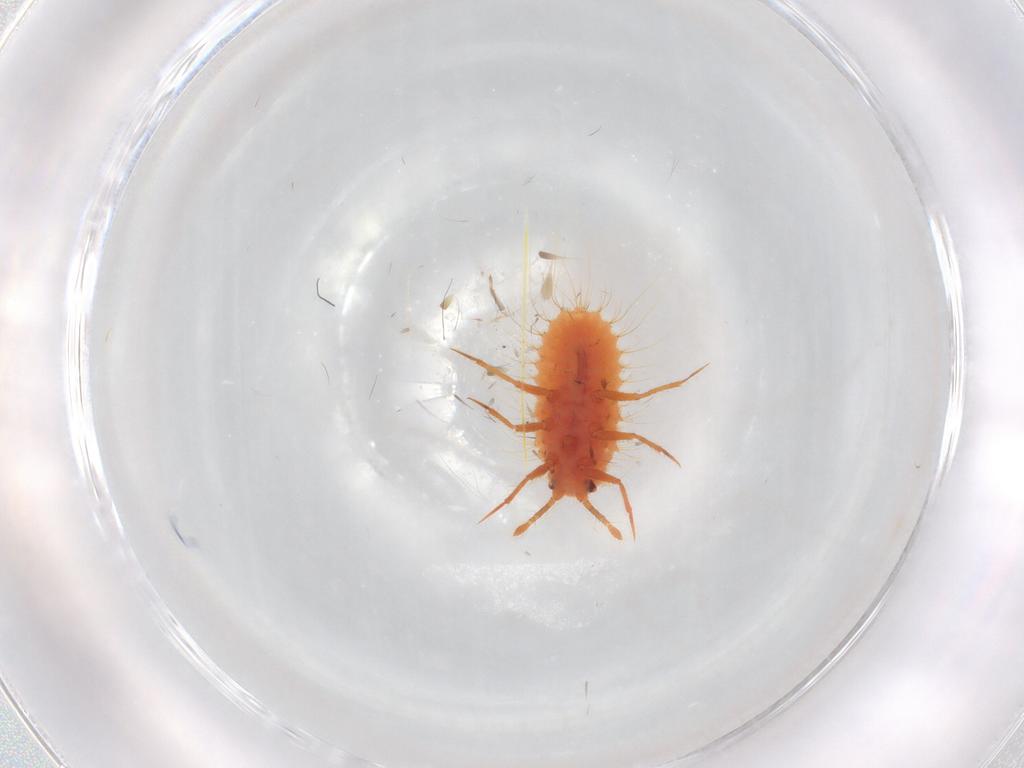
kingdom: Animalia
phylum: Arthropoda
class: Insecta
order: Hemiptera
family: Coccoidea_incertae_sedis
